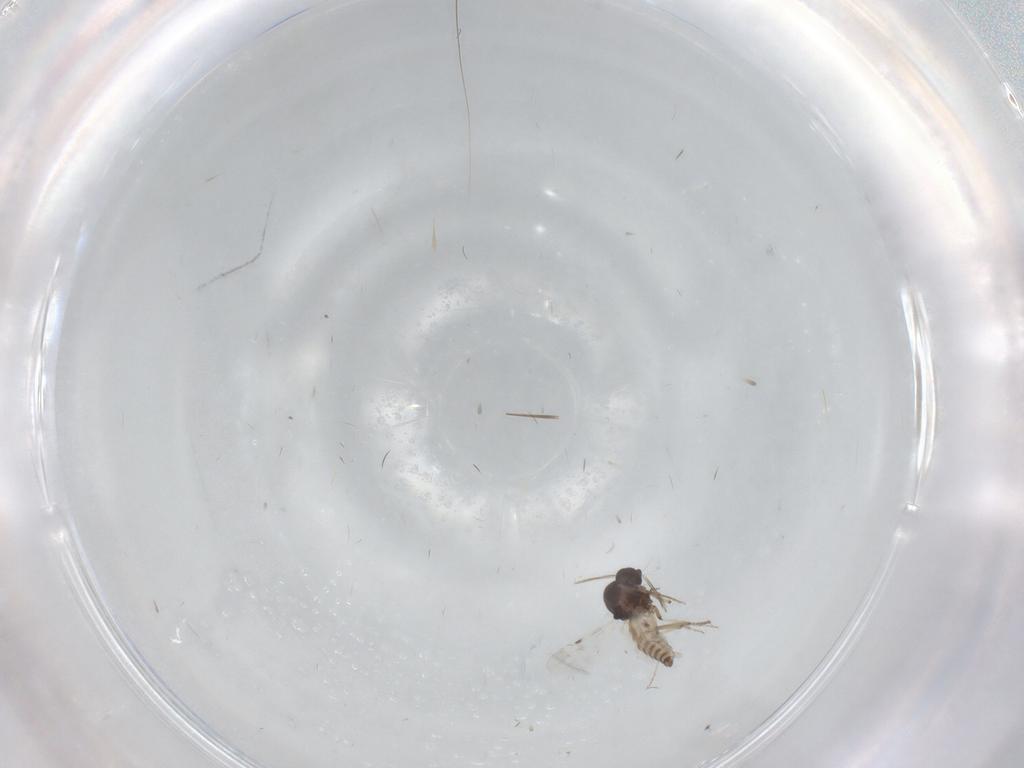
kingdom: Animalia
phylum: Arthropoda
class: Insecta
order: Diptera
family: Psychodidae
